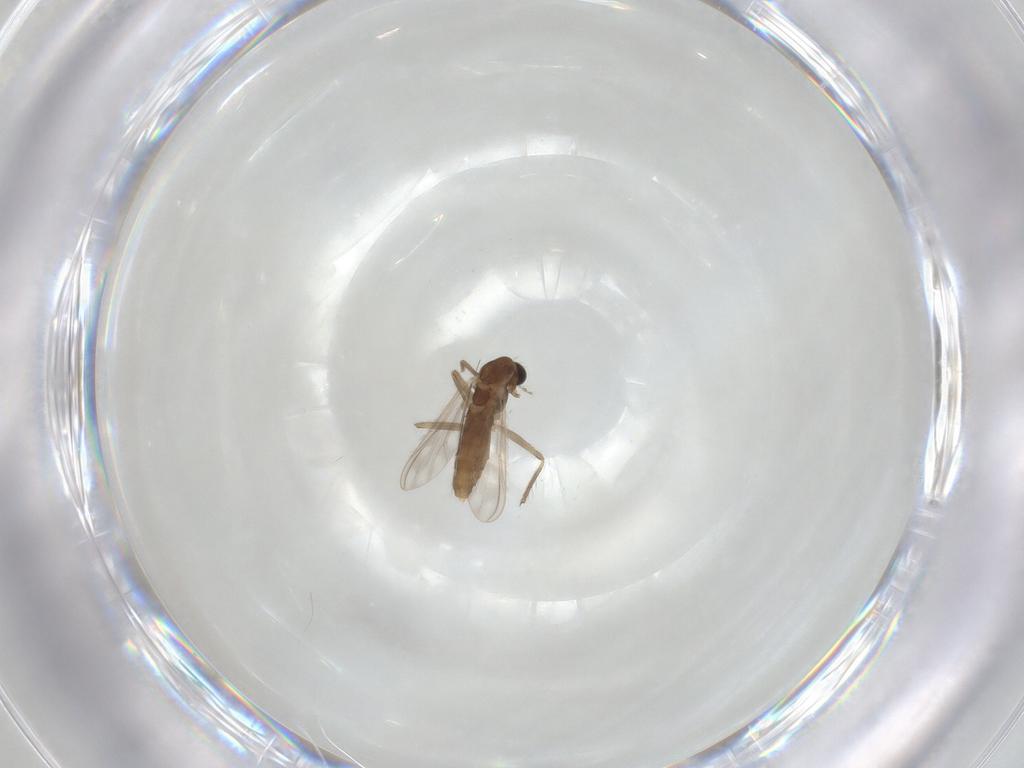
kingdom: Animalia
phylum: Arthropoda
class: Insecta
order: Diptera
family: Chironomidae
